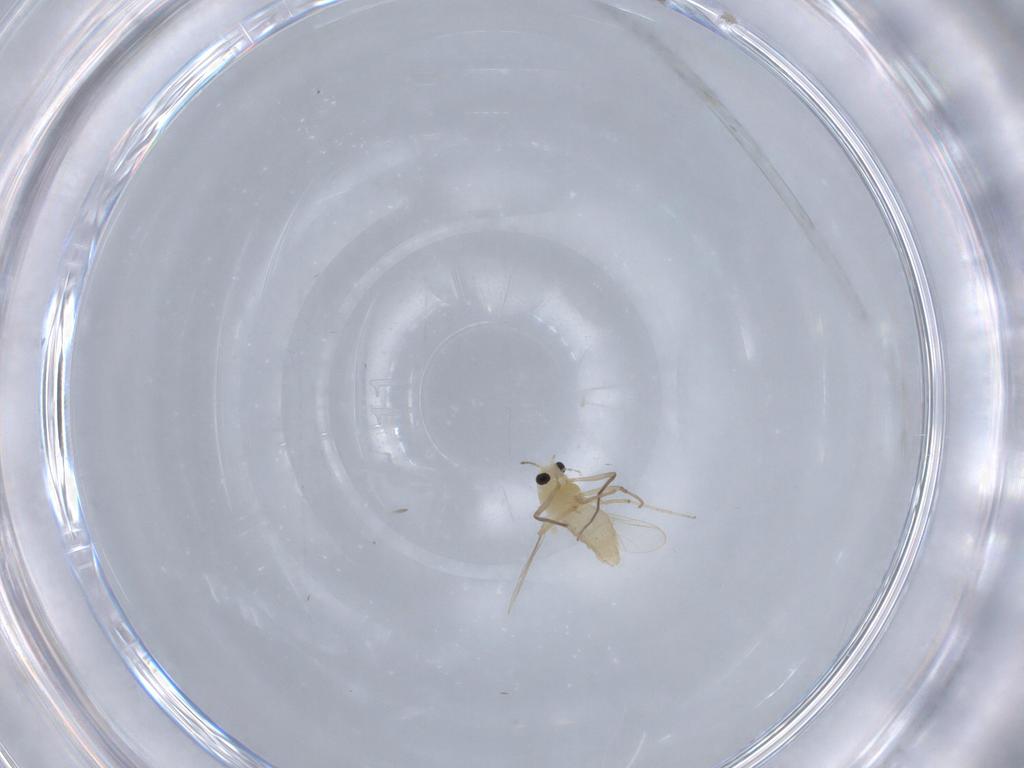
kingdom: Animalia
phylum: Arthropoda
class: Insecta
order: Diptera
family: Chironomidae
